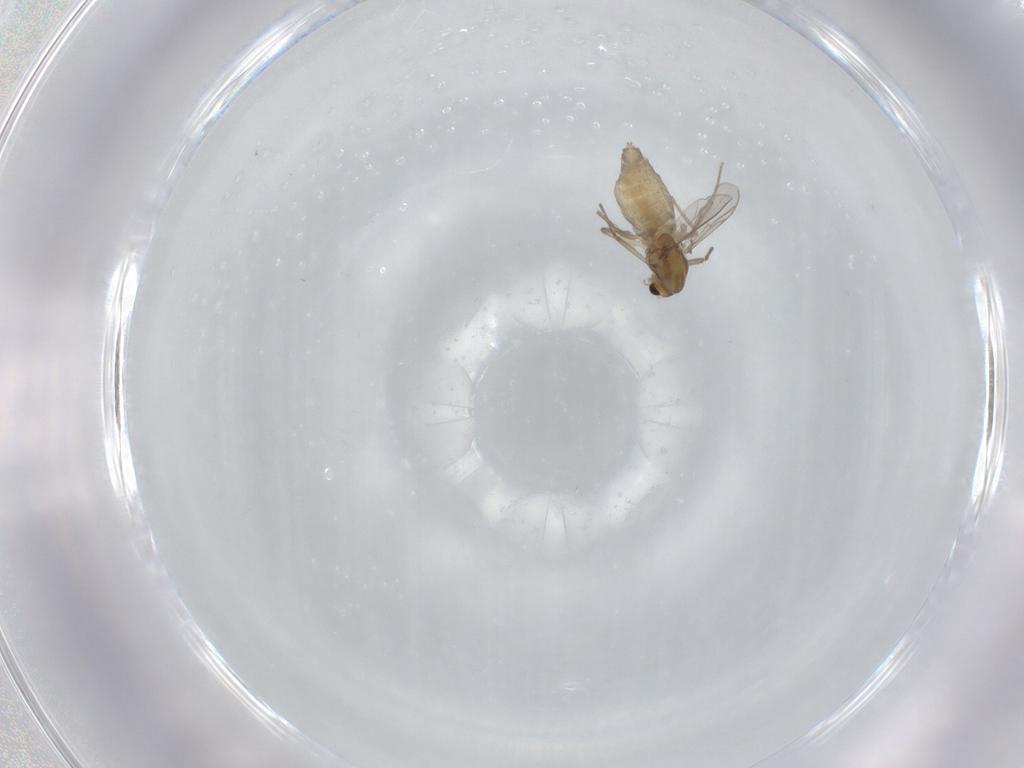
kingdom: Animalia
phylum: Arthropoda
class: Insecta
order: Diptera
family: Chironomidae
